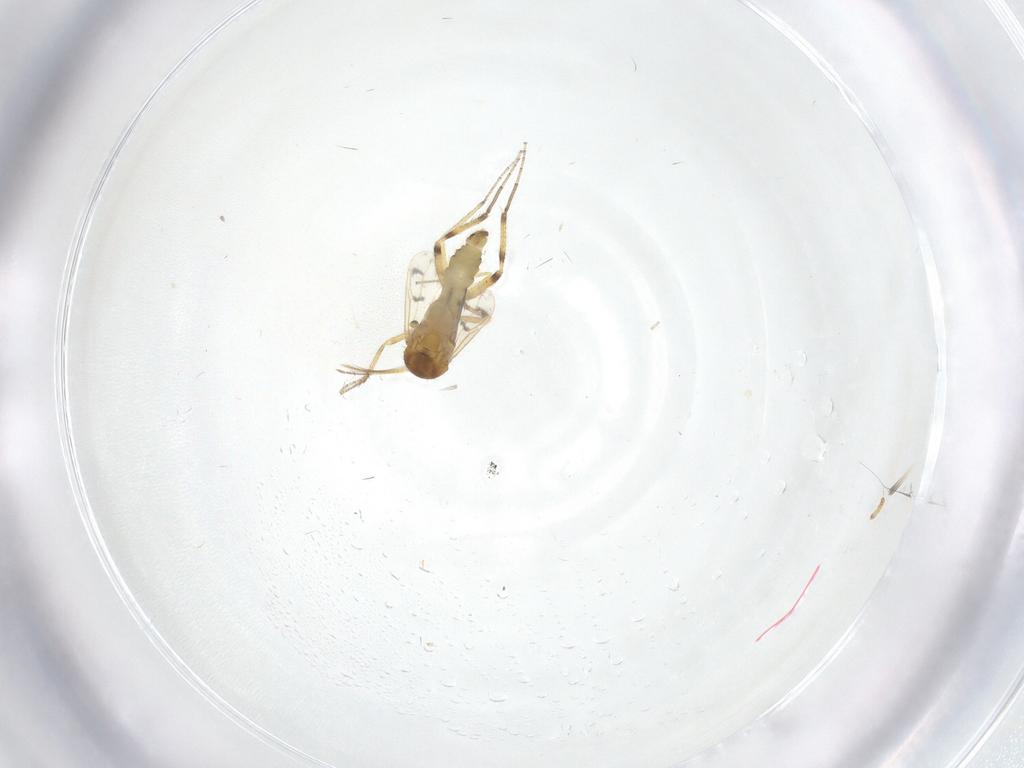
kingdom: Animalia
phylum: Arthropoda
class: Insecta
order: Diptera
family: Ceratopogonidae
